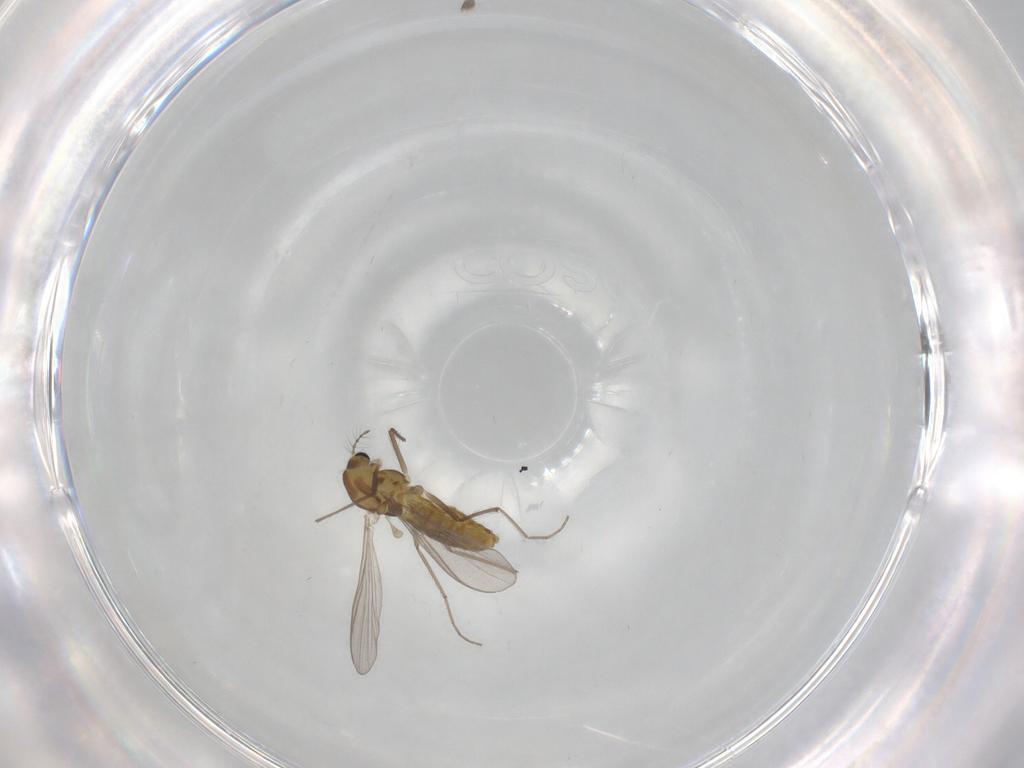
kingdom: Animalia
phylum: Arthropoda
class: Insecta
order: Diptera
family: Chironomidae
